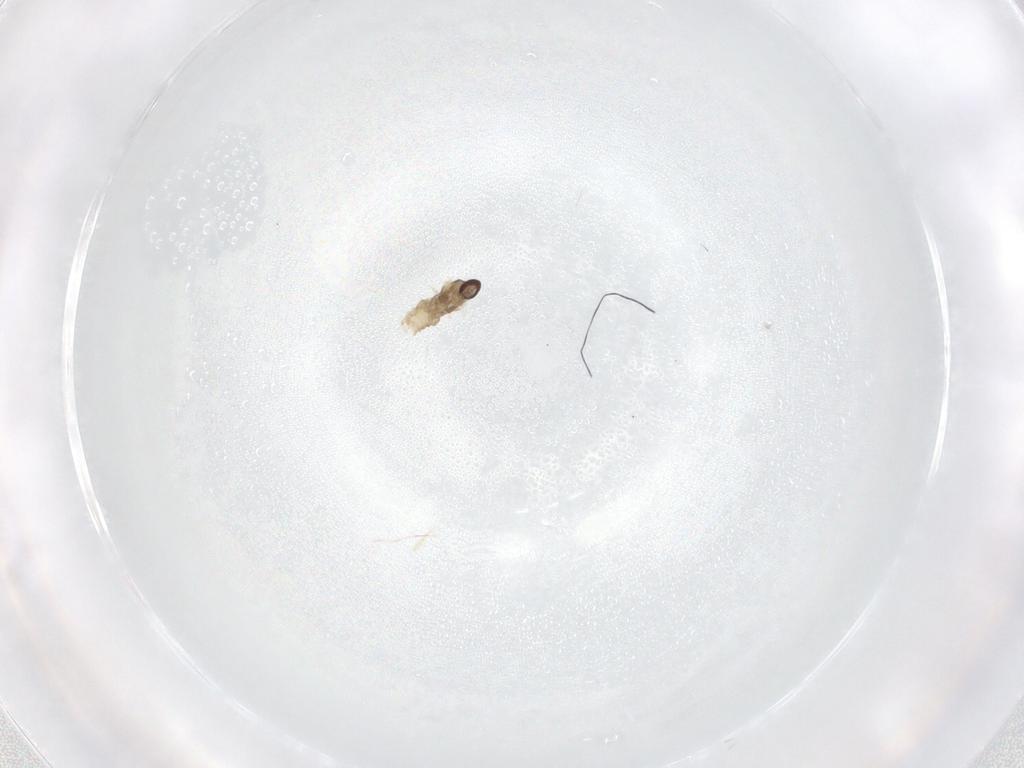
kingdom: Animalia
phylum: Arthropoda
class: Insecta
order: Diptera
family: Cecidomyiidae
